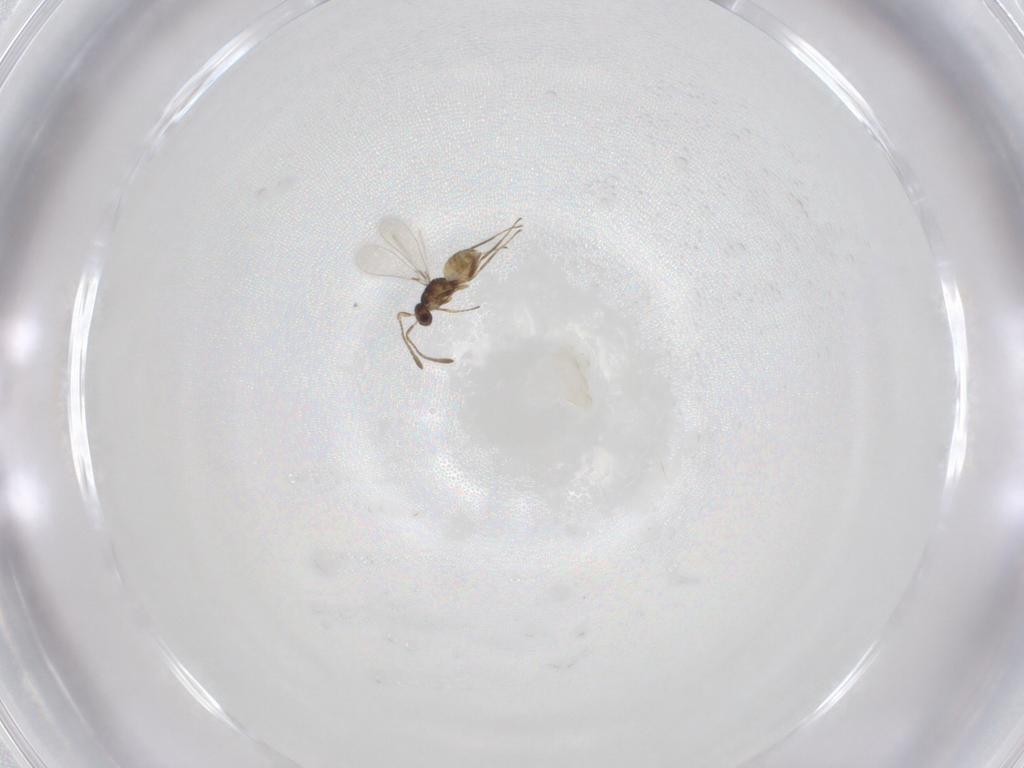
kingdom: Animalia
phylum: Arthropoda
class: Insecta
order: Hymenoptera
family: Mymaridae
